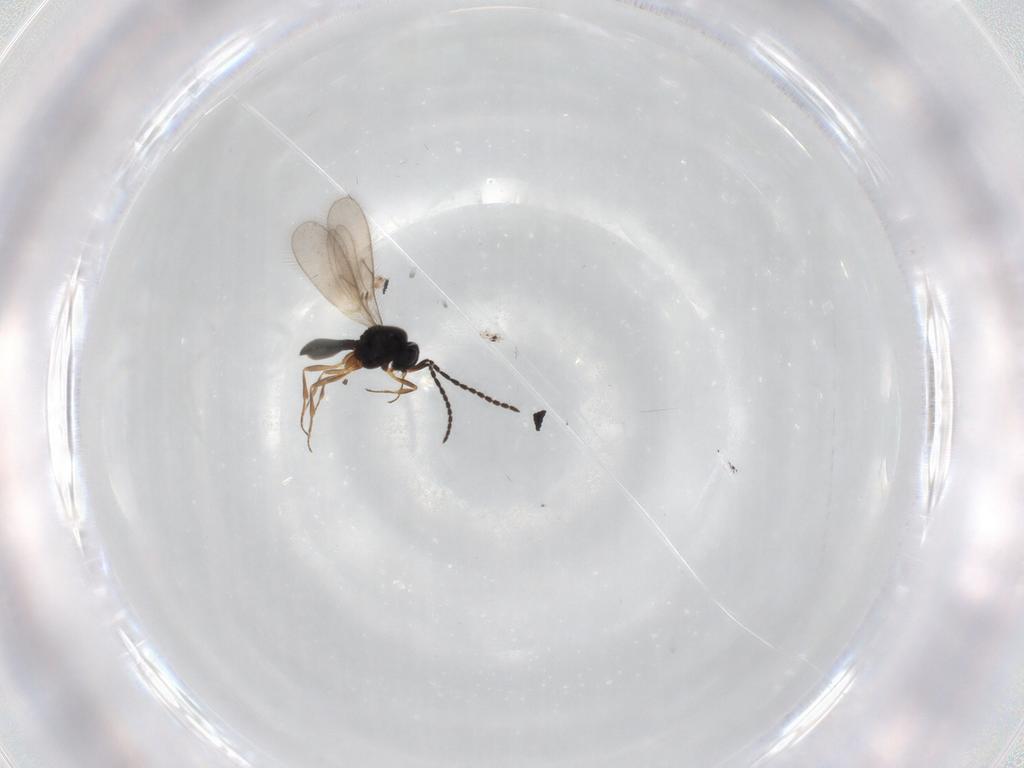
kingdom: Animalia
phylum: Arthropoda
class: Insecta
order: Hymenoptera
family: Scelionidae
